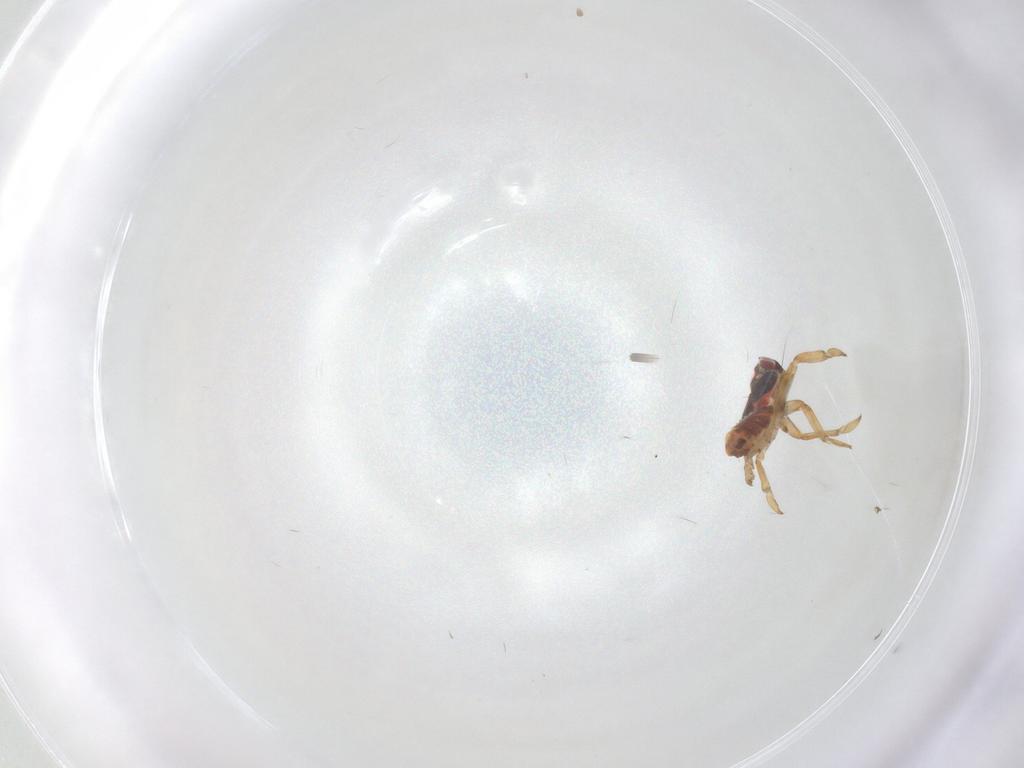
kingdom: Animalia
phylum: Arthropoda
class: Insecta
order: Hemiptera
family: Issidae
